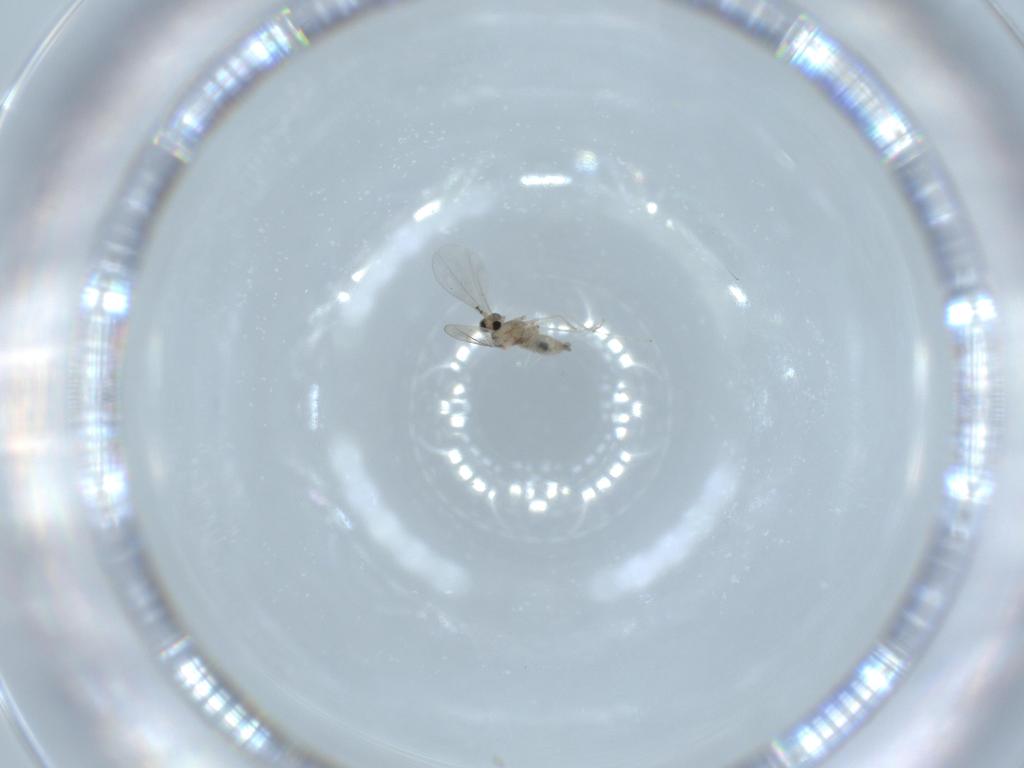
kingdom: Animalia
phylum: Arthropoda
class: Insecta
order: Diptera
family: Cecidomyiidae
